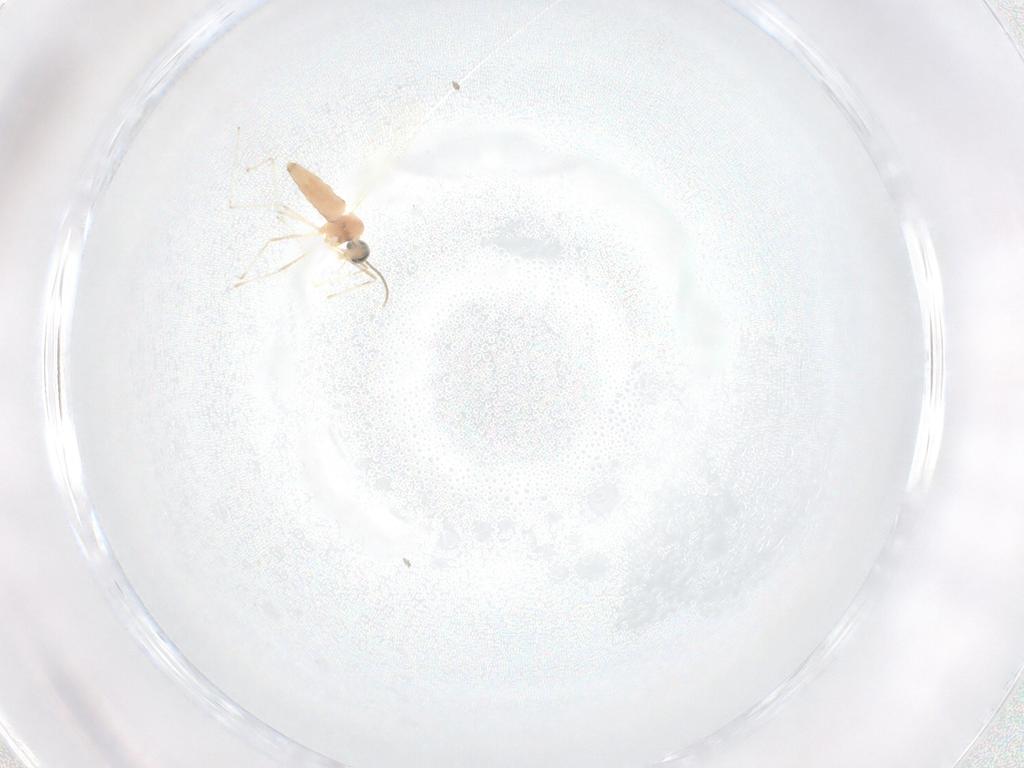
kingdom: Animalia
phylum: Arthropoda
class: Insecta
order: Diptera
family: Cecidomyiidae
